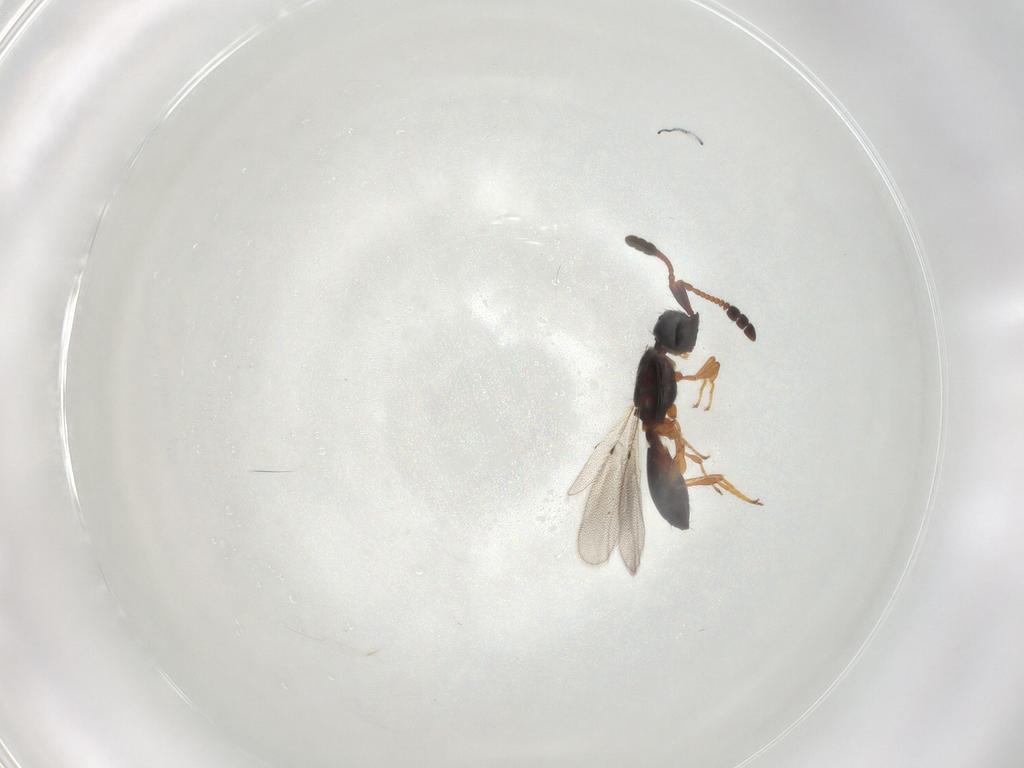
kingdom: Animalia
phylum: Arthropoda
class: Insecta
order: Hymenoptera
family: Braconidae
